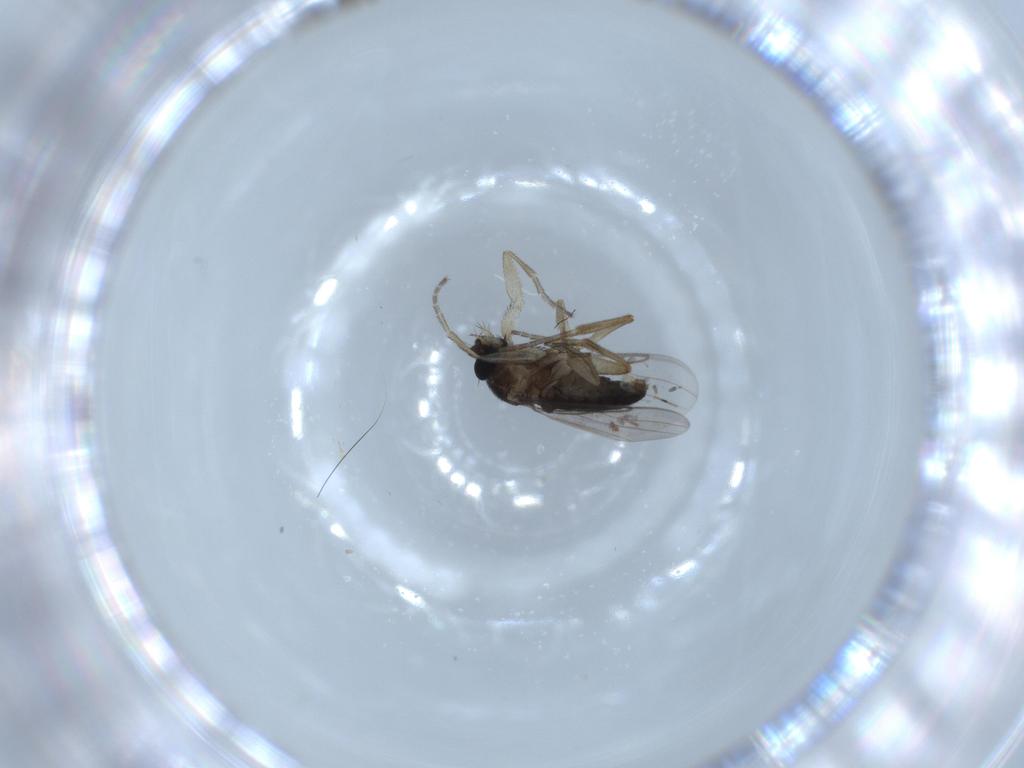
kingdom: Animalia
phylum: Arthropoda
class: Insecta
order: Diptera
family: Phoridae
